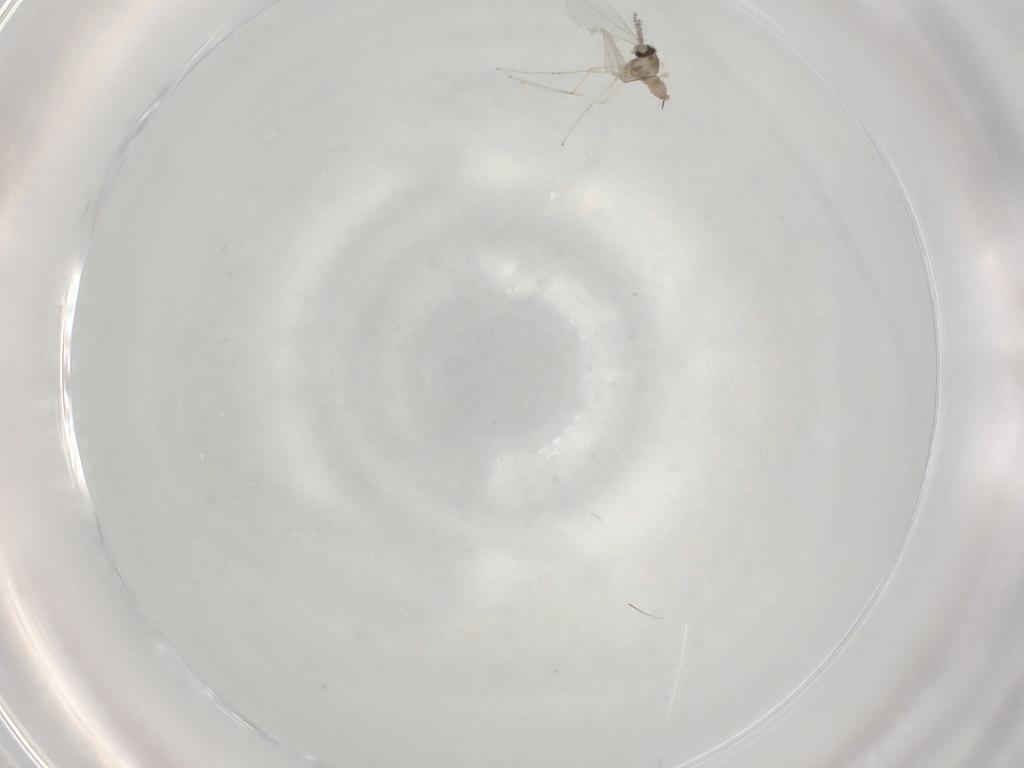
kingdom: Animalia
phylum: Arthropoda
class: Insecta
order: Diptera
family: Cecidomyiidae
